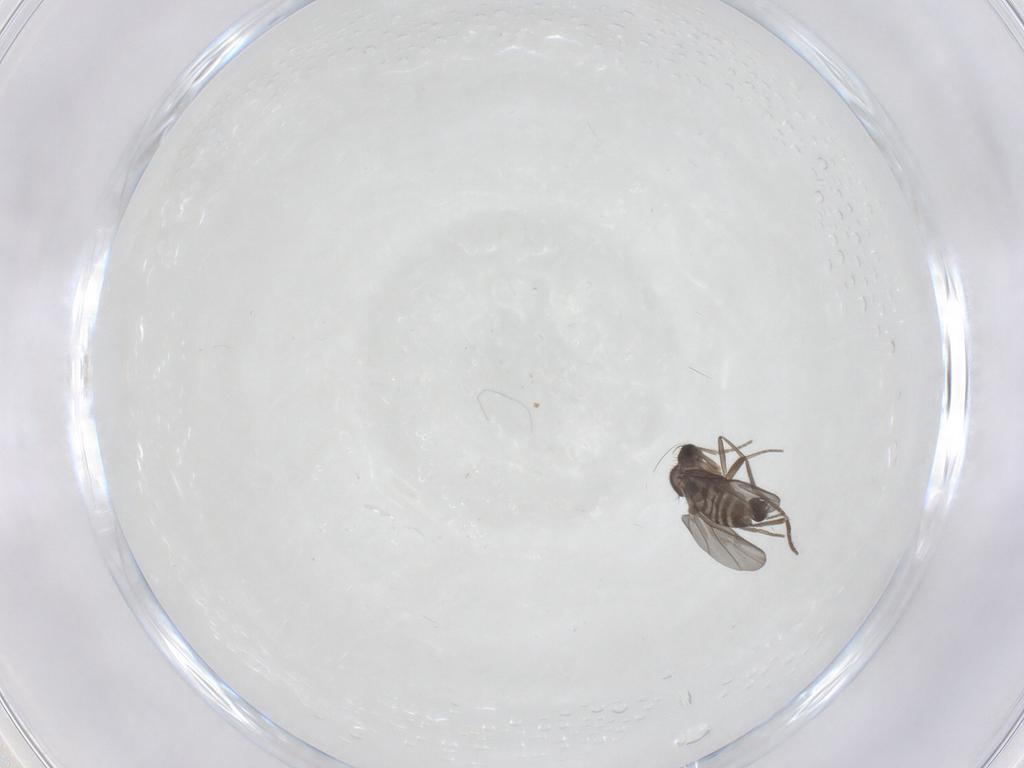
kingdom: Animalia
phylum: Arthropoda
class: Insecta
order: Diptera
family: Phoridae
